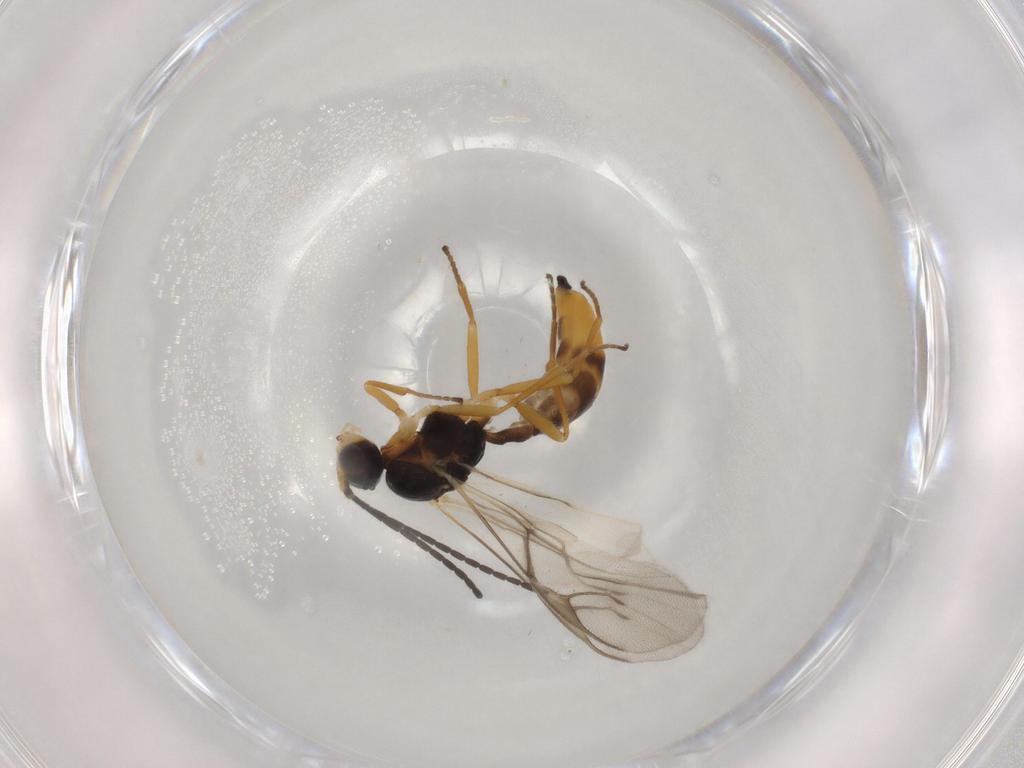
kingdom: Animalia
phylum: Arthropoda
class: Insecta
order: Hymenoptera
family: Braconidae
